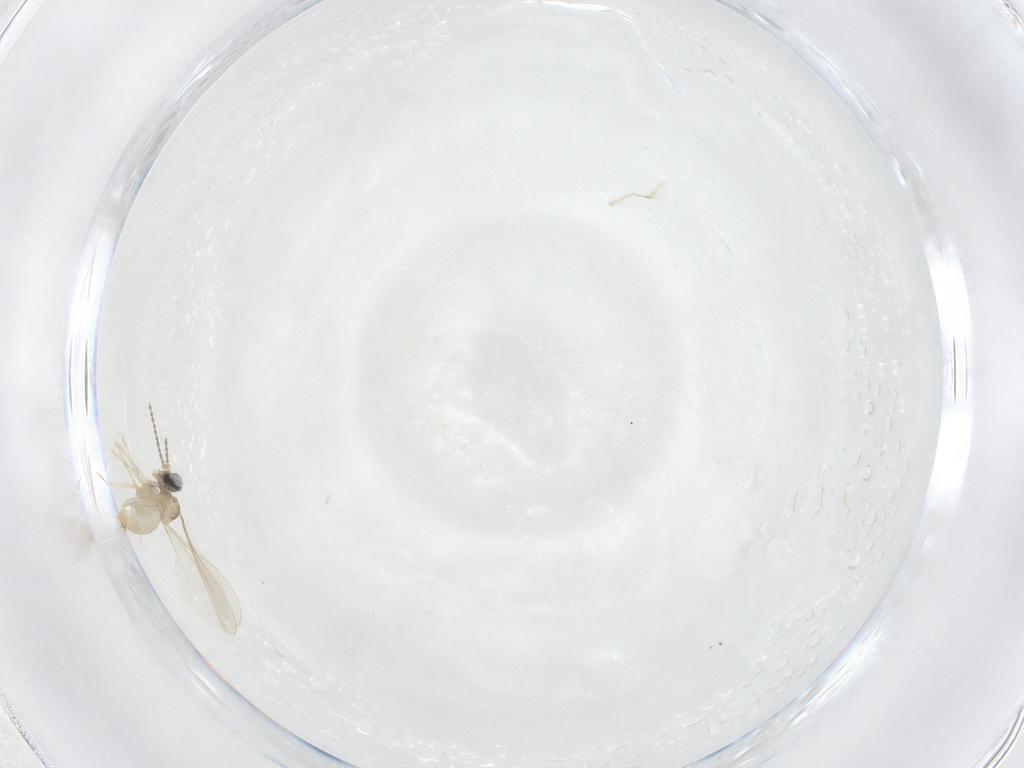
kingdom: Animalia
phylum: Arthropoda
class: Insecta
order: Diptera
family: Cecidomyiidae
